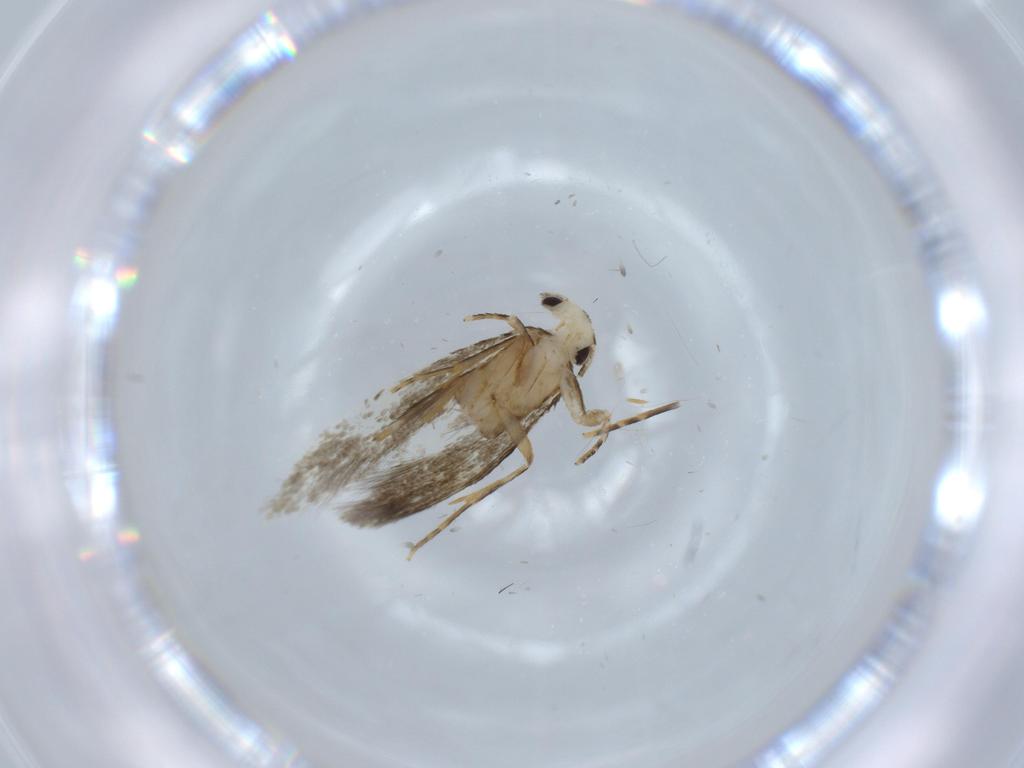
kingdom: Animalia
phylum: Arthropoda
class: Insecta
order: Lepidoptera
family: Tineidae
